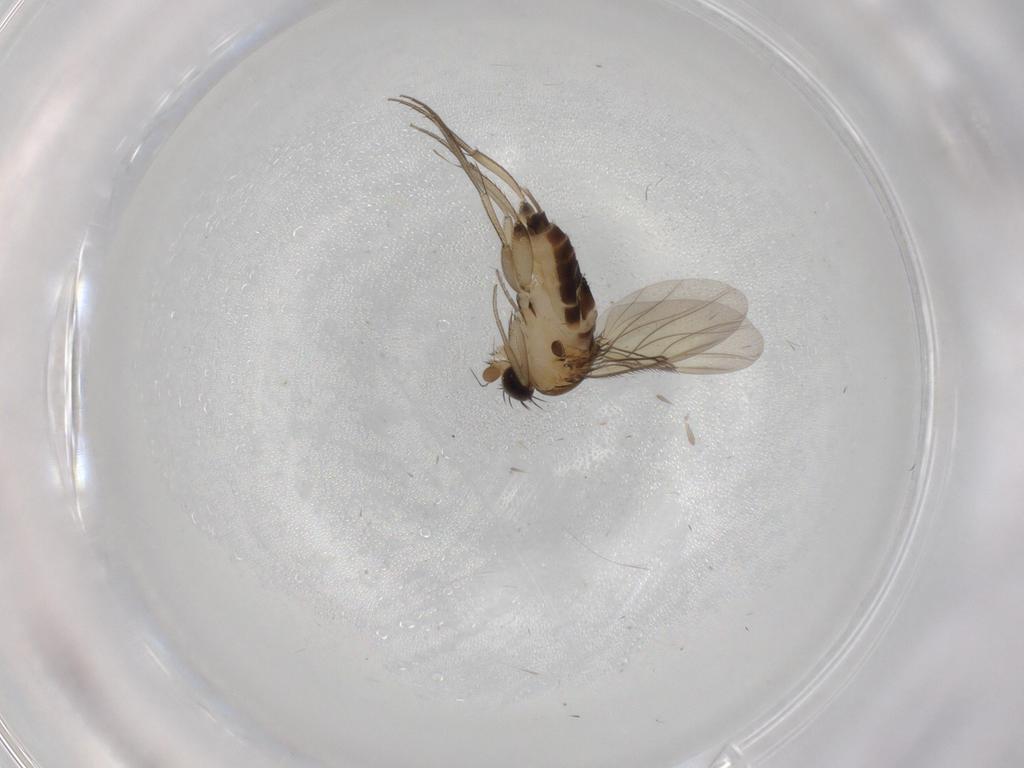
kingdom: Animalia
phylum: Arthropoda
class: Insecta
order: Diptera
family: Phoridae
